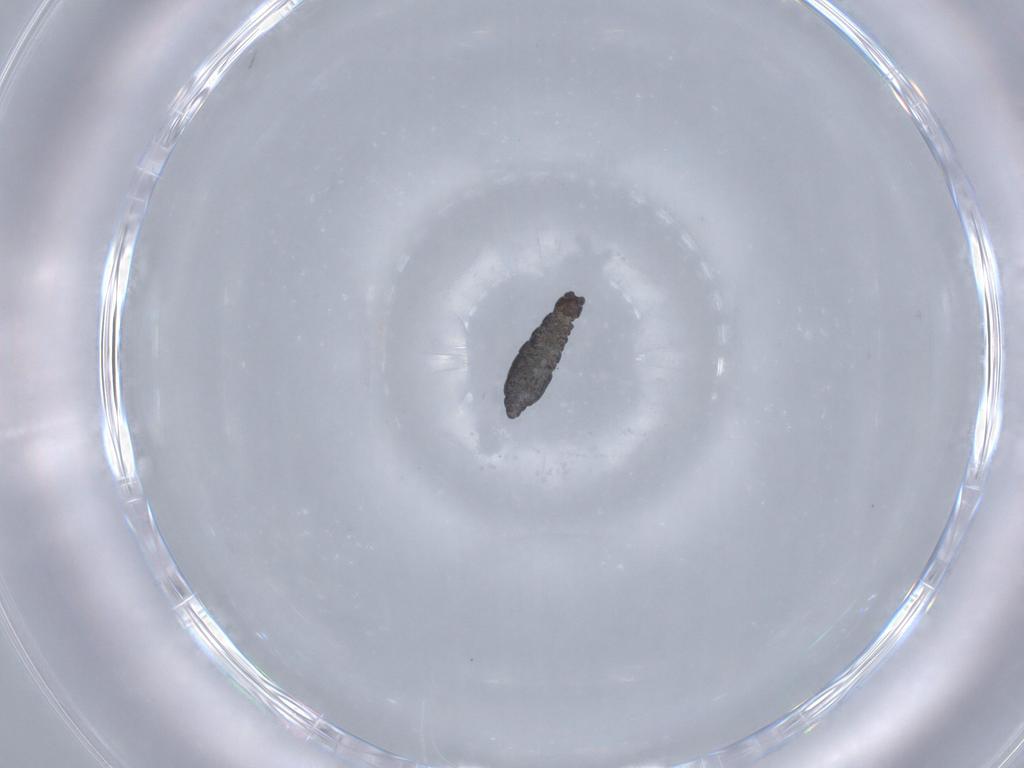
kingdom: Animalia
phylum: Arthropoda
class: Collembola
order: Poduromorpha
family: Hypogastruridae
